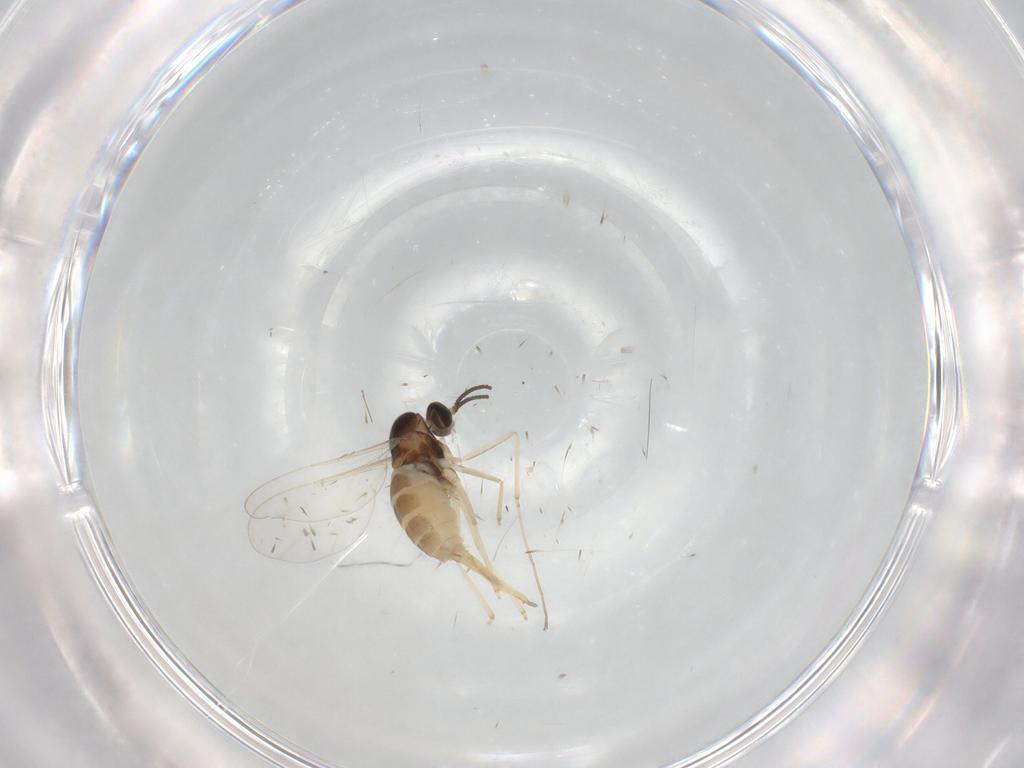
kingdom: Animalia
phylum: Arthropoda
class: Insecta
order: Diptera
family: Cecidomyiidae
